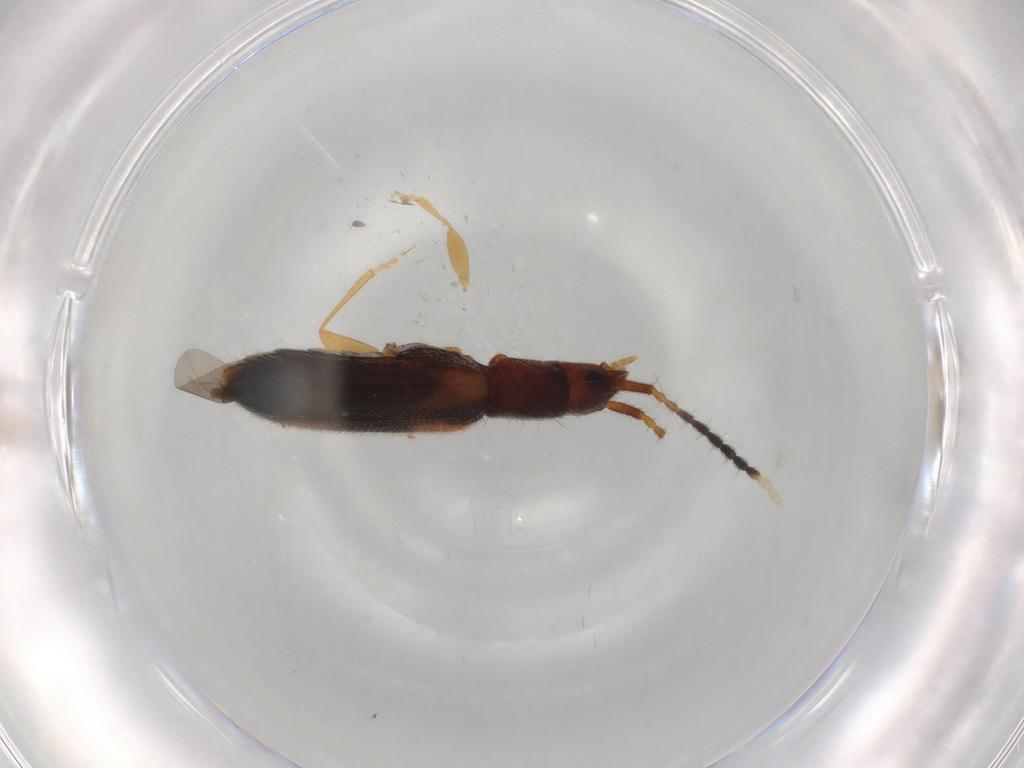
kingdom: Animalia
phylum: Arthropoda
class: Insecta
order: Coleoptera
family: Silvanidae
